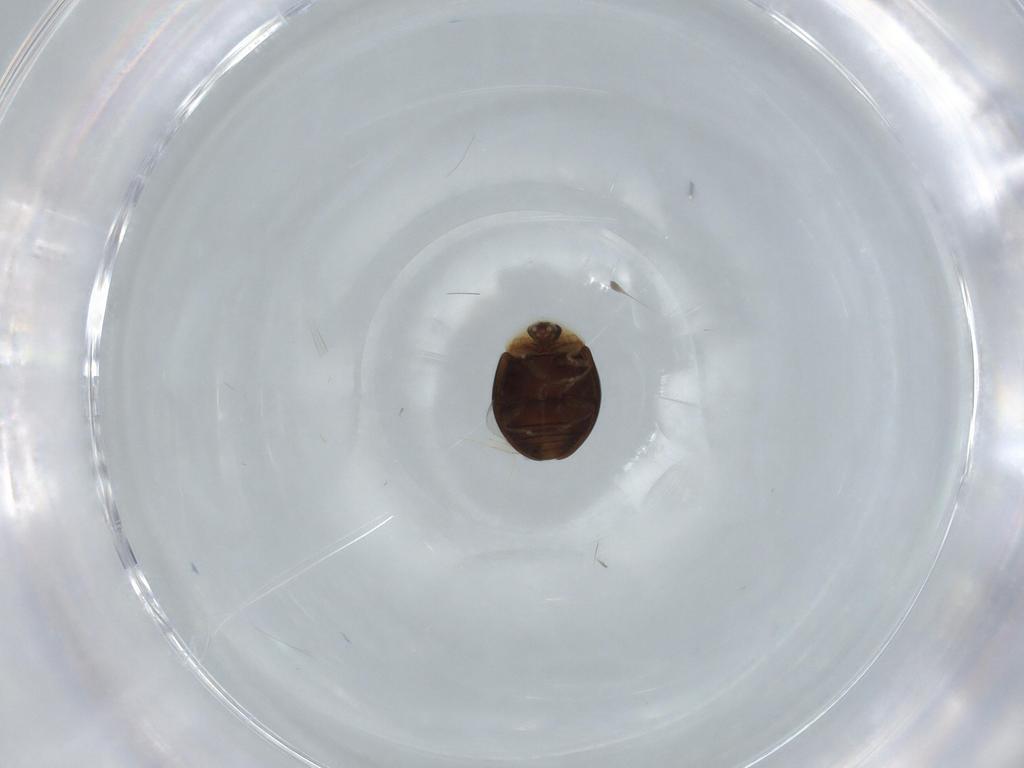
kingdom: Animalia
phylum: Arthropoda
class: Insecta
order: Coleoptera
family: Corylophidae
